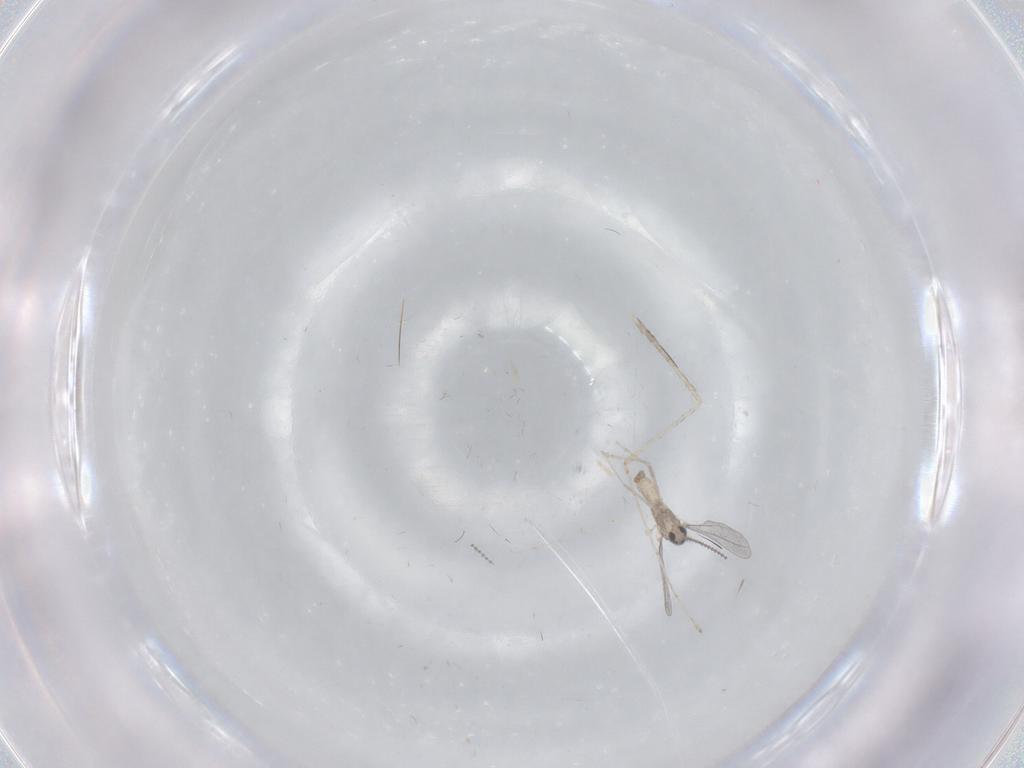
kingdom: Animalia
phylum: Arthropoda
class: Insecta
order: Diptera
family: Cecidomyiidae
